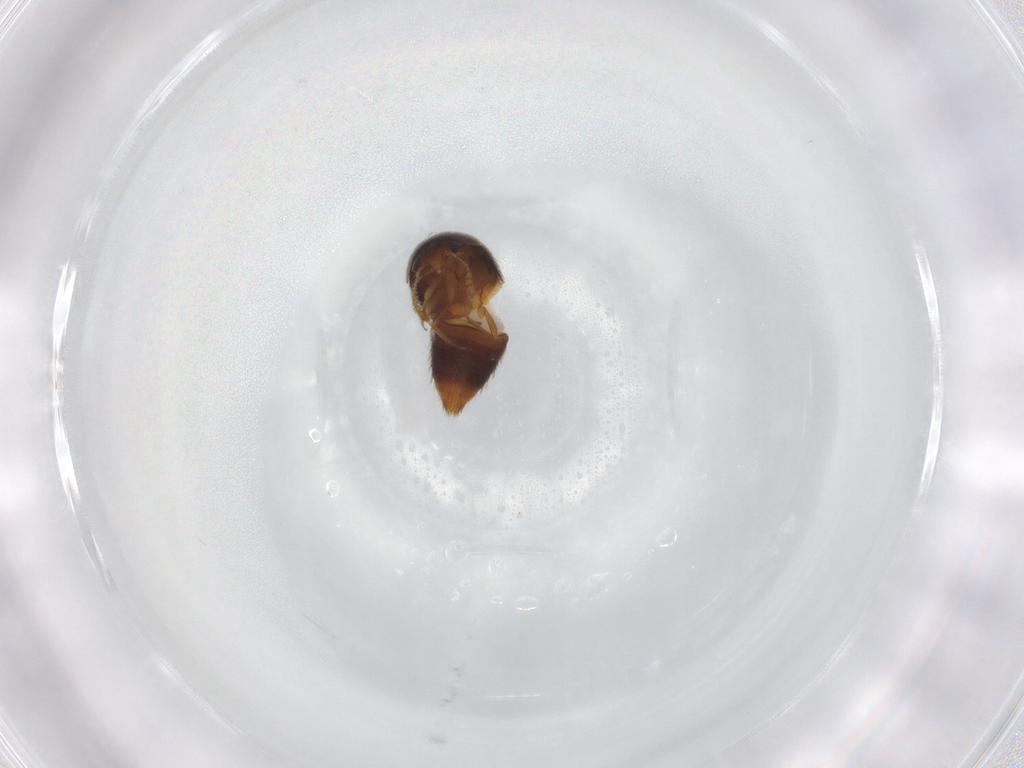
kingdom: Animalia
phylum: Arthropoda
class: Insecta
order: Coleoptera
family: Staphylinidae
